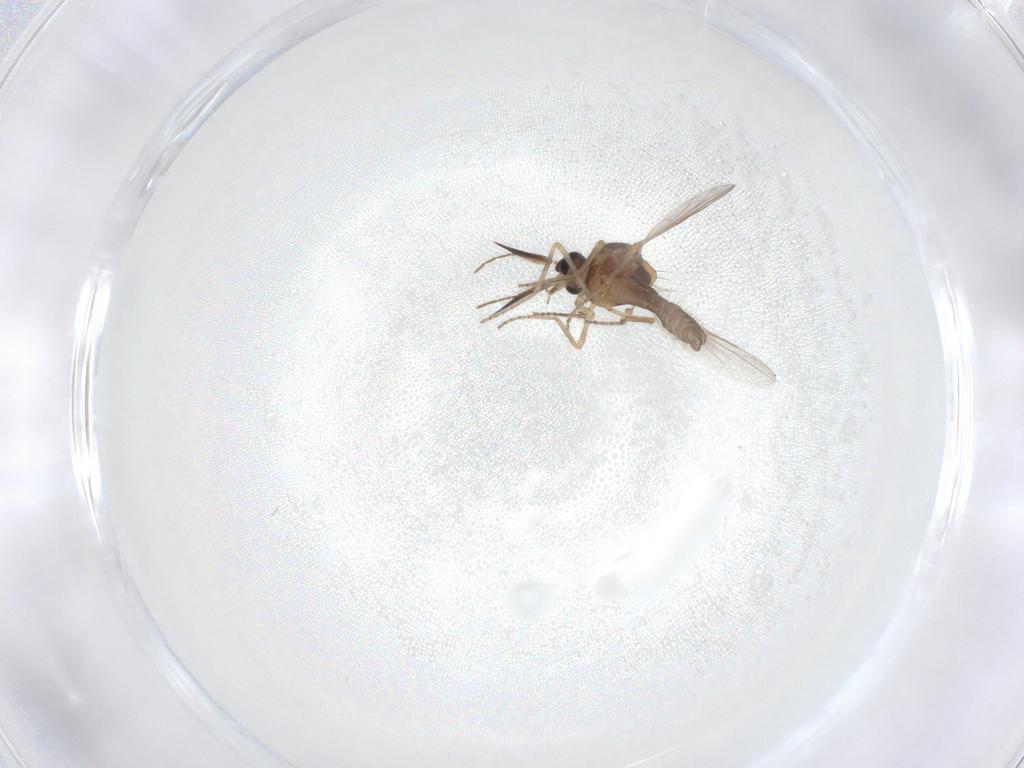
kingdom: Animalia
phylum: Arthropoda
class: Insecta
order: Diptera
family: Ceratopogonidae
